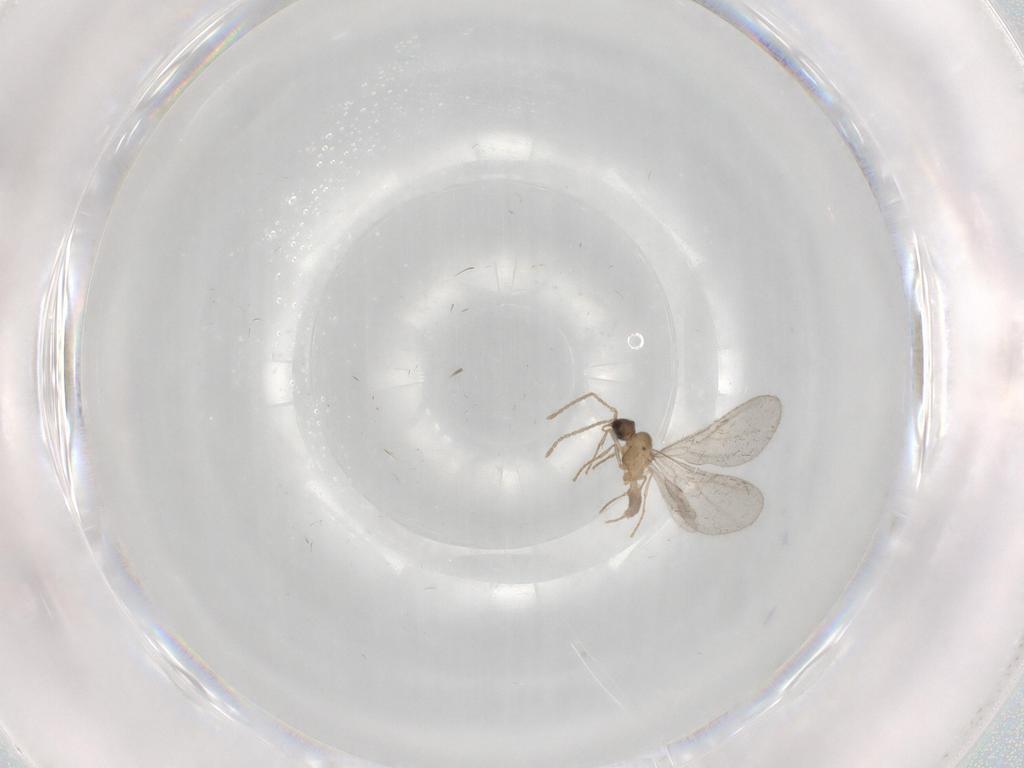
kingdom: Animalia
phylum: Arthropoda
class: Insecta
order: Hymenoptera
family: Formicidae
